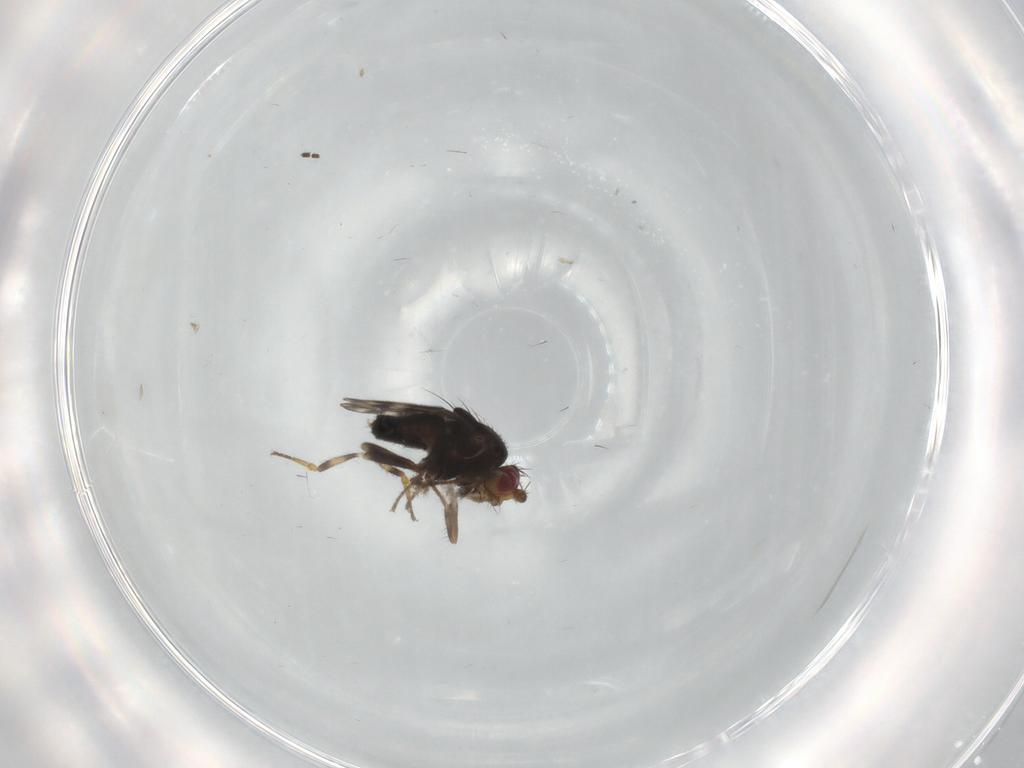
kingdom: Animalia
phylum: Arthropoda
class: Insecta
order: Diptera
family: Sphaeroceridae
